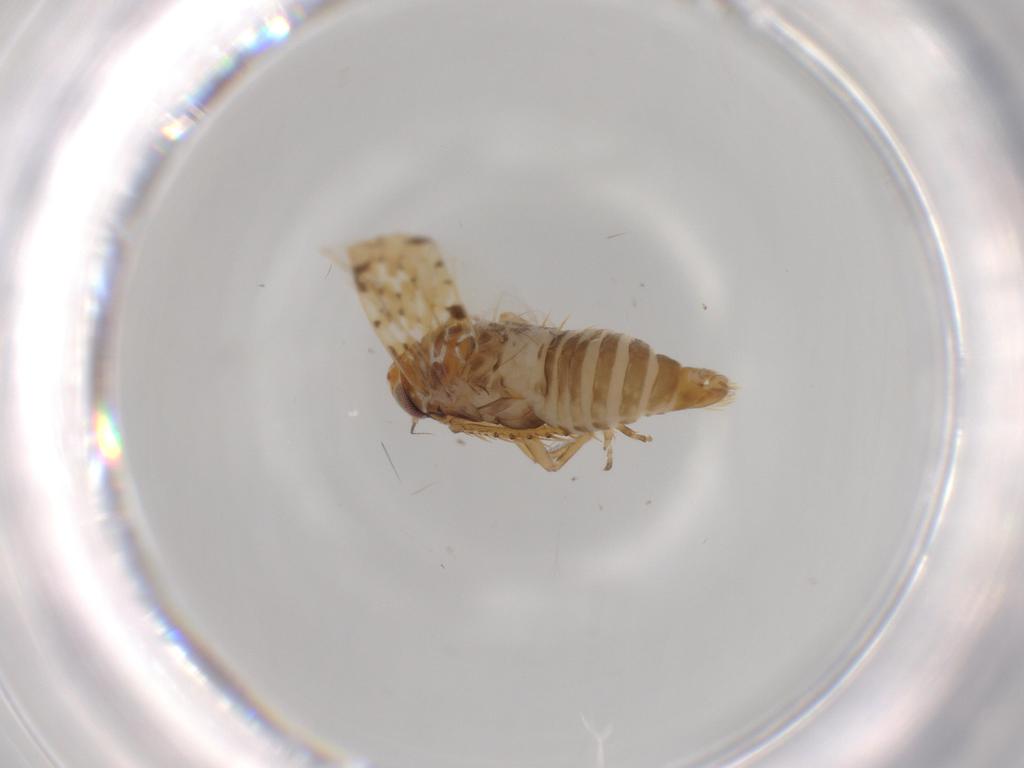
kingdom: Animalia
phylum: Arthropoda
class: Insecta
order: Hemiptera
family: Cicadellidae
